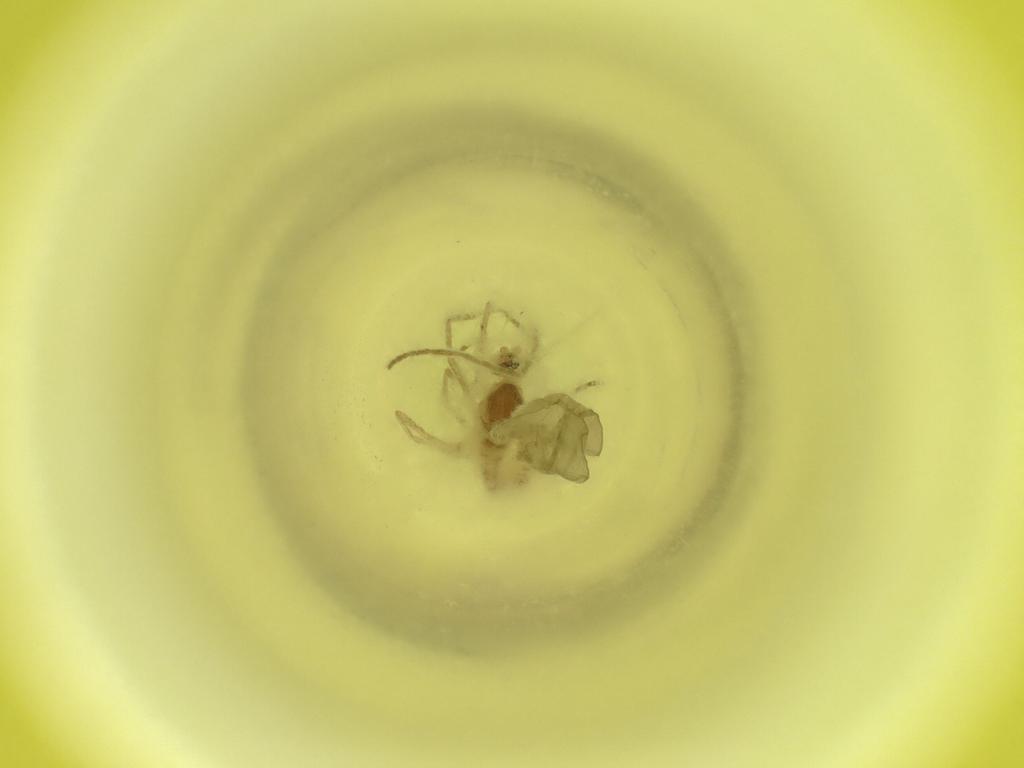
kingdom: Animalia
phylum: Arthropoda
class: Insecta
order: Diptera
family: Cecidomyiidae
